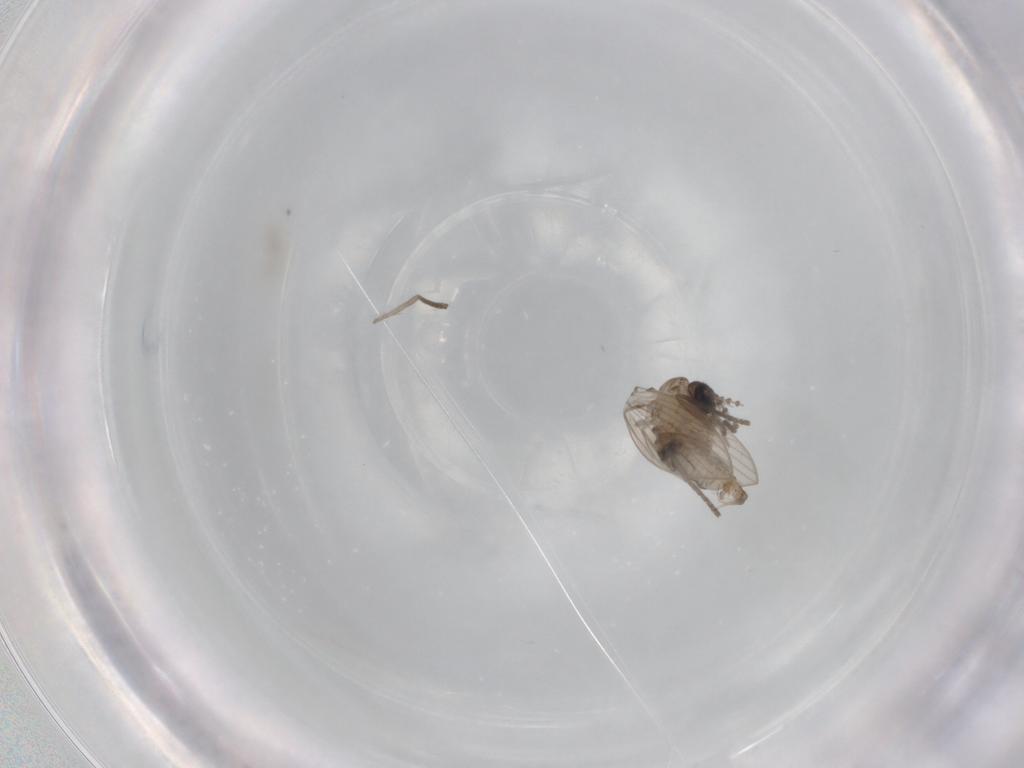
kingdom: Animalia
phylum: Arthropoda
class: Insecta
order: Diptera
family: Psychodidae
